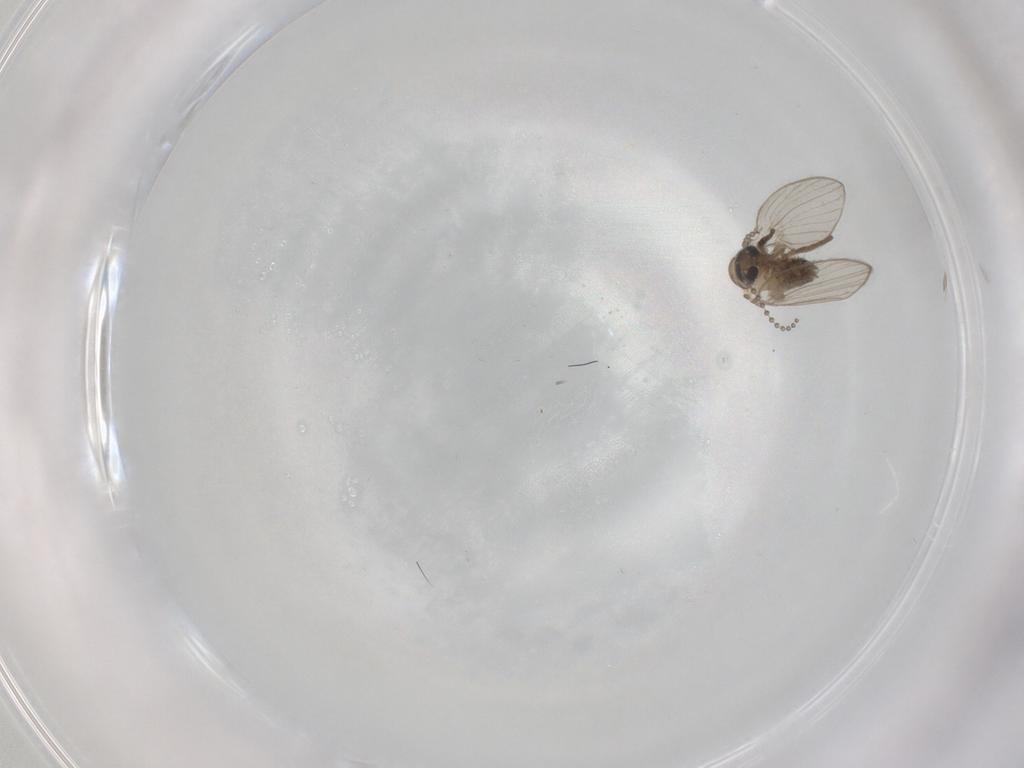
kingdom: Animalia
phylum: Arthropoda
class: Insecta
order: Diptera
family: Psychodidae
